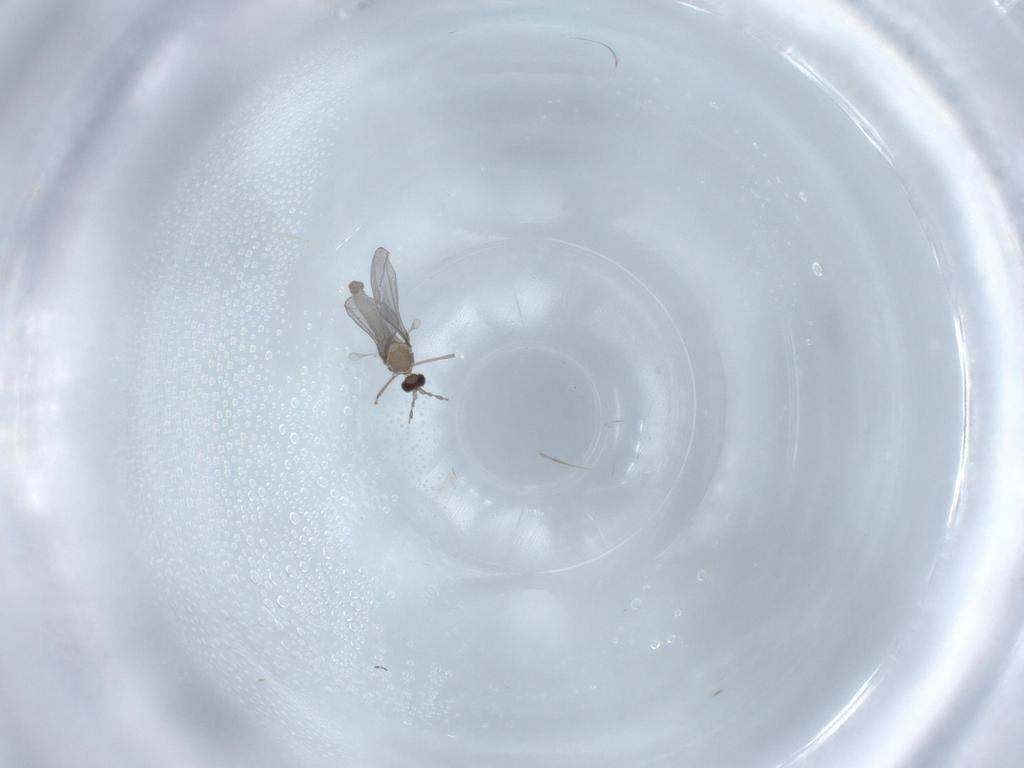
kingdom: Animalia
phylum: Arthropoda
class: Insecta
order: Diptera
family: Cecidomyiidae
